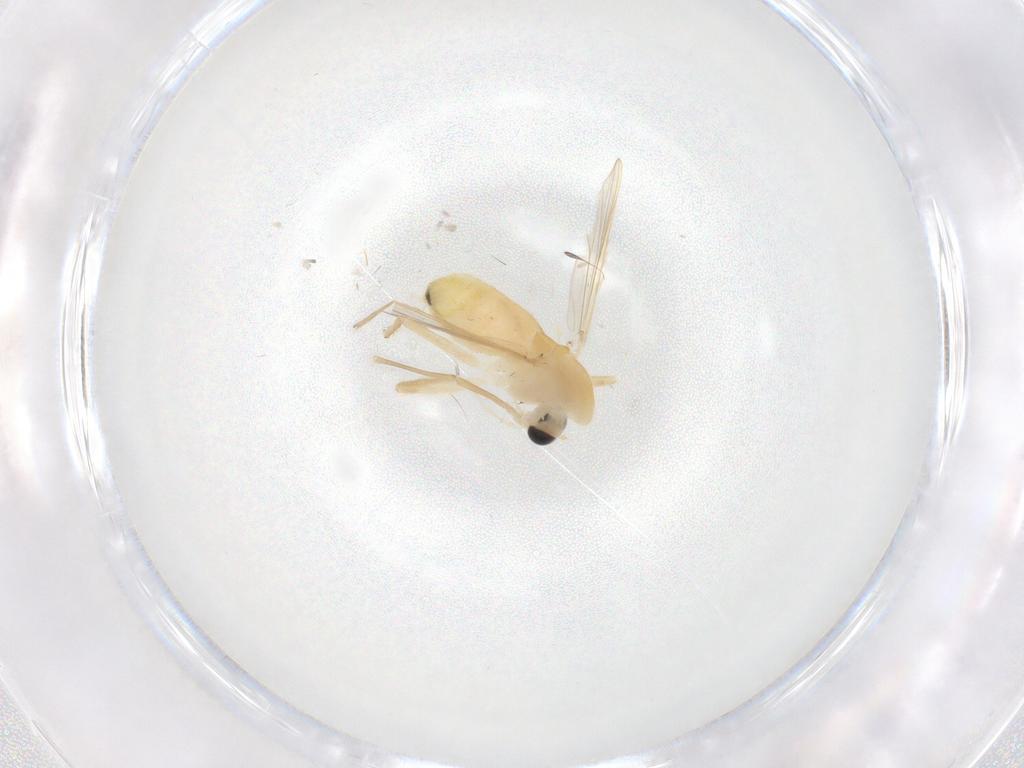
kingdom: Animalia
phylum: Arthropoda
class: Insecta
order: Diptera
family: Chironomidae
